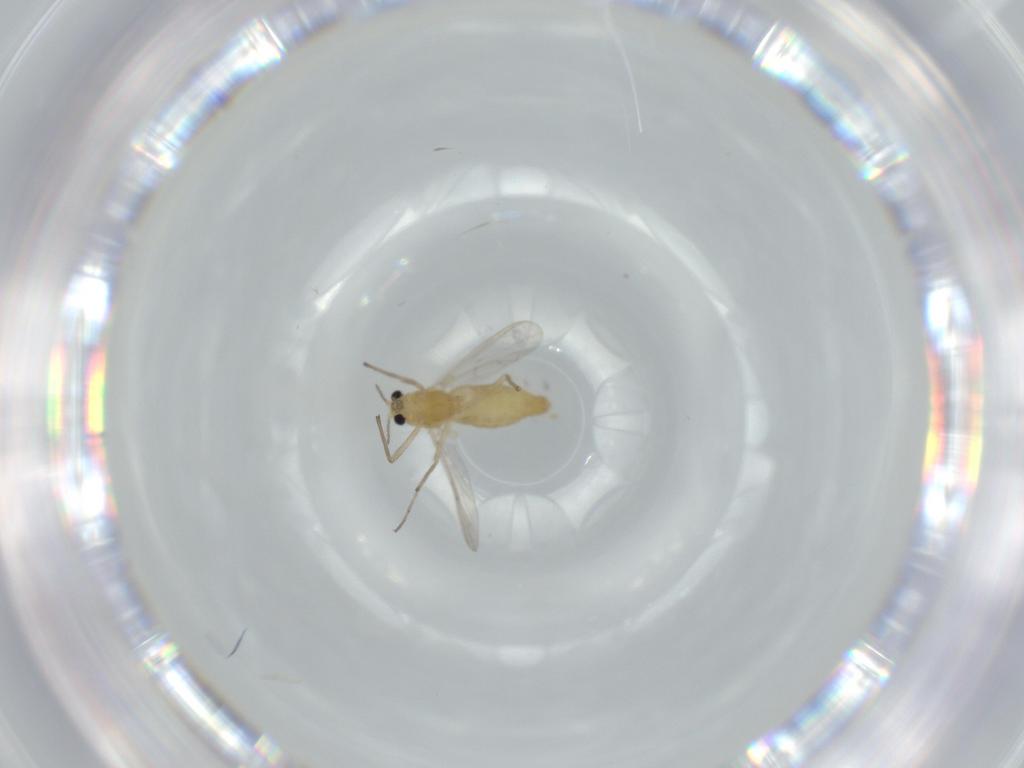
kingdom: Animalia
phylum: Arthropoda
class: Insecta
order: Diptera
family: Chironomidae
